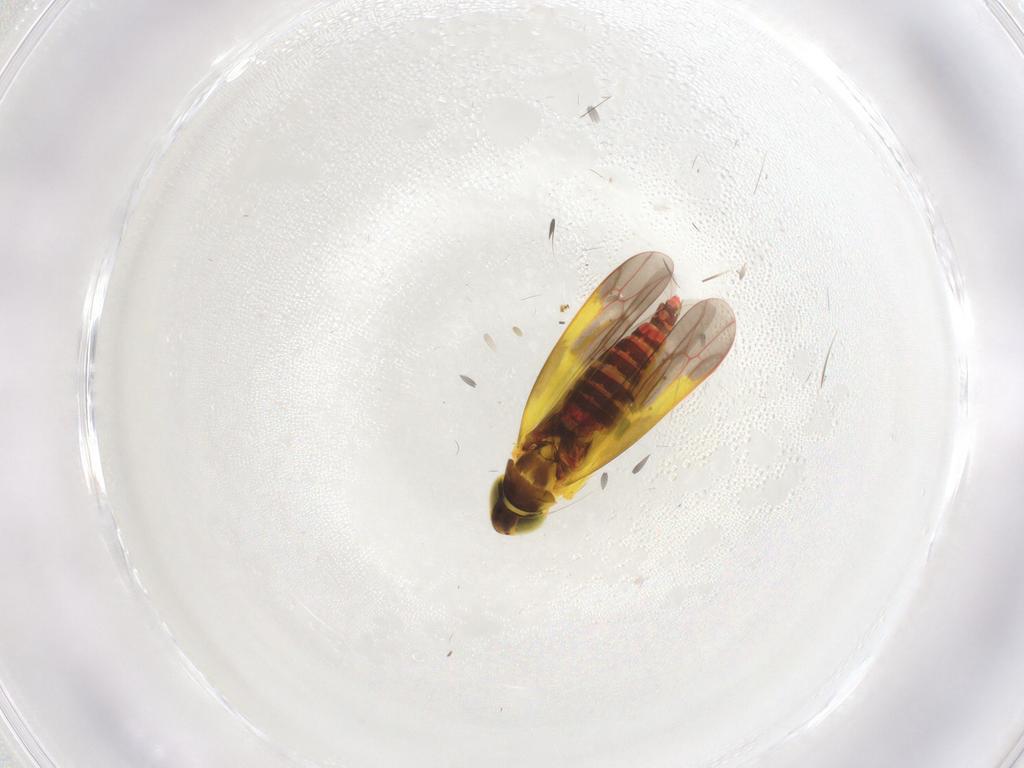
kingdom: Animalia
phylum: Arthropoda
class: Insecta
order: Hemiptera
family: Cicadellidae
